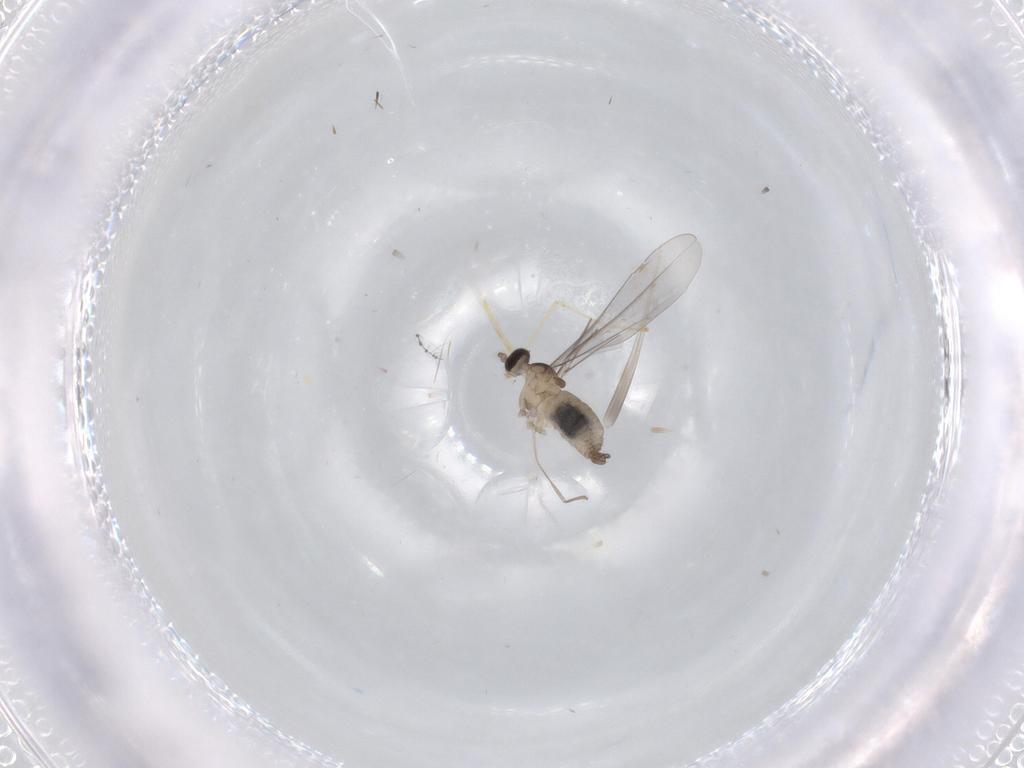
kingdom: Animalia
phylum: Arthropoda
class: Insecta
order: Diptera
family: Cecidomyiidae
